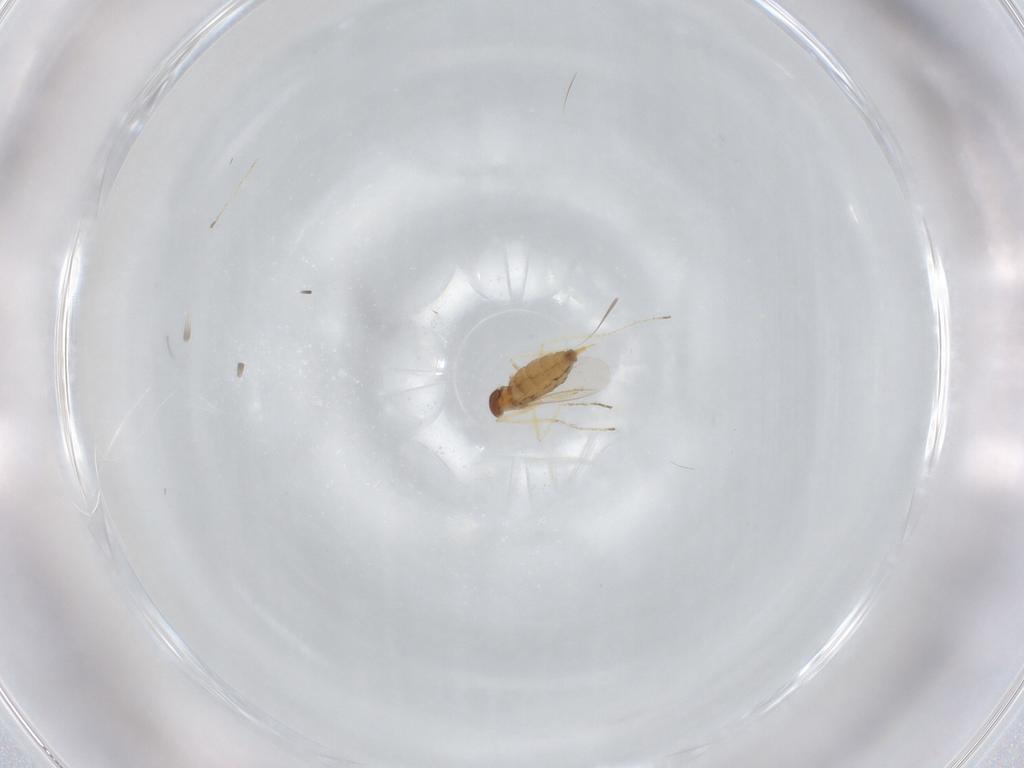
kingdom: Animalia
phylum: Arthropoda
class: Insecta
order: Diptera
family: Cecidomyiidae
